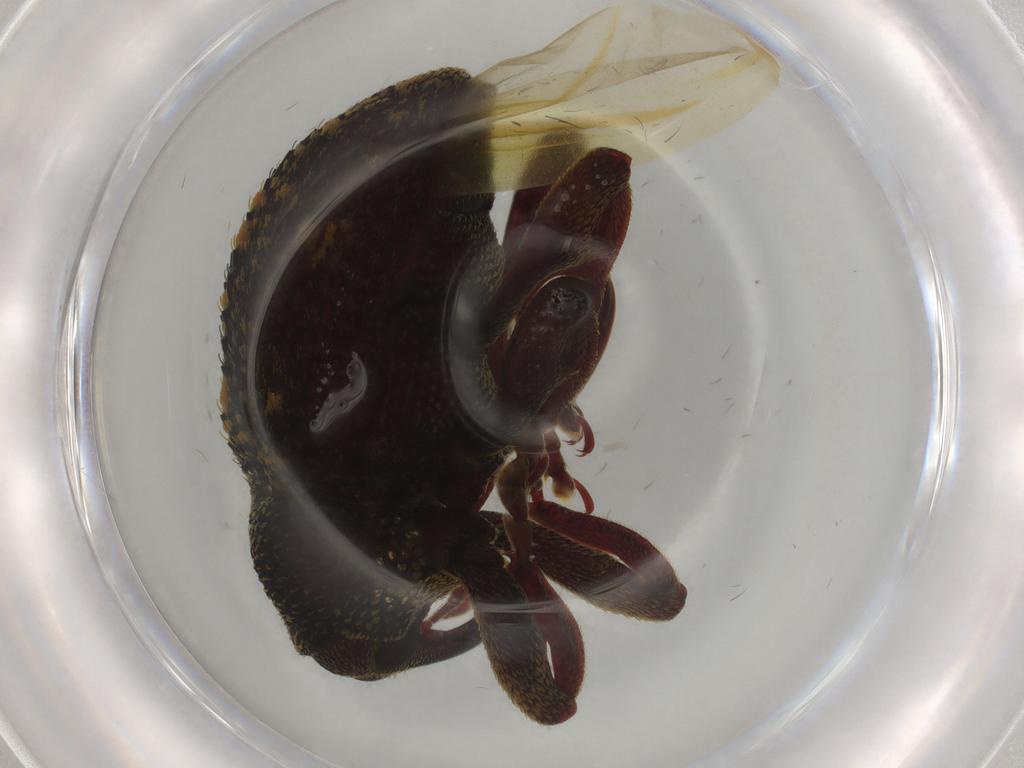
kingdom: Animalia
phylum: Arthropoda
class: Insecta
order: Coleoptera
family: Curculionidae
